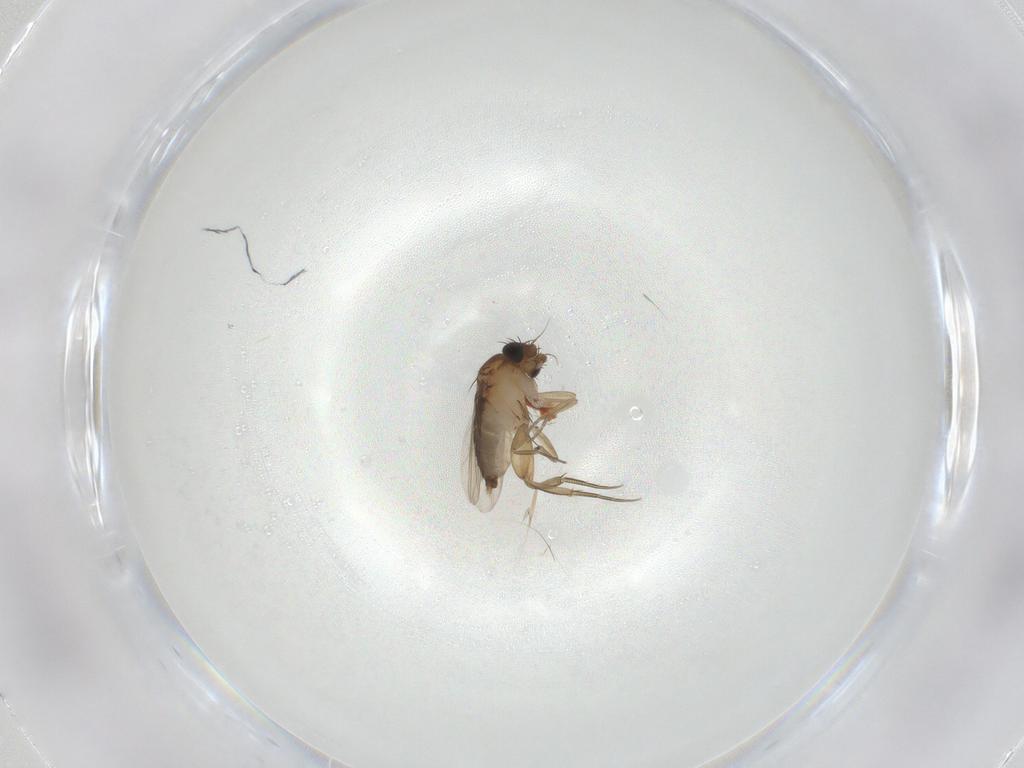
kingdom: Animalia
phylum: Arthropoda
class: Insecta
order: Diptera
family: Phoridae
